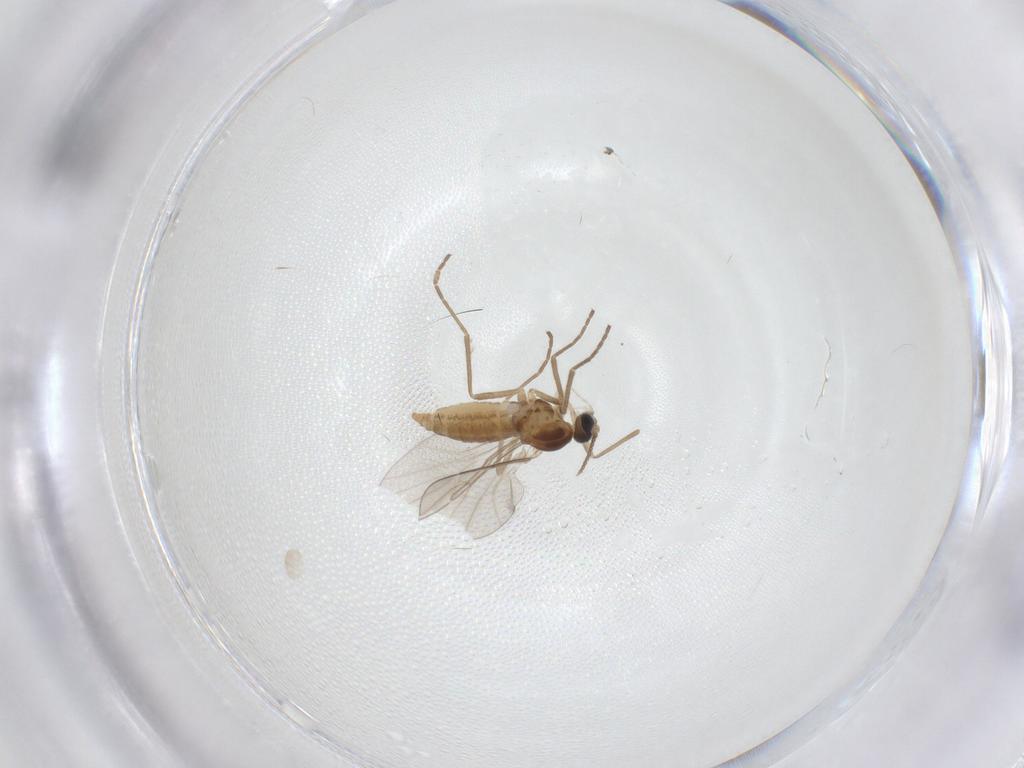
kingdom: Animalia
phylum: Arthropoda
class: Insecta
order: Diptera
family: Cecidomyiidae
